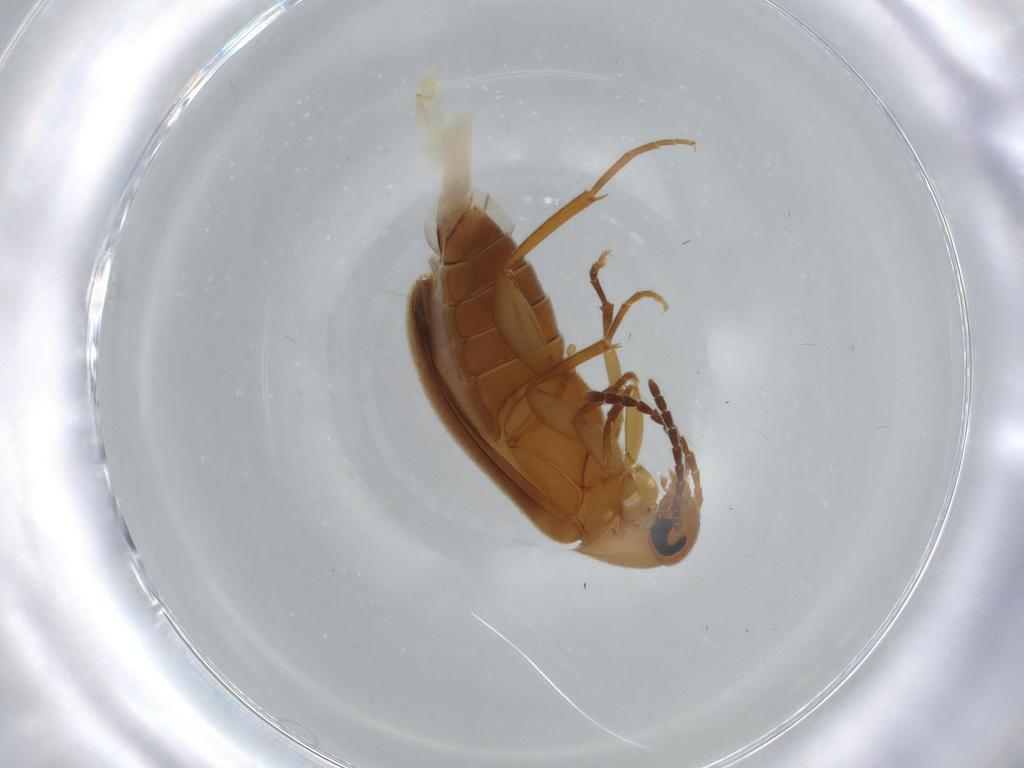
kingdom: Animalia
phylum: Arthropoda
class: Insecta
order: Coleoptera
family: Scraptiidae
